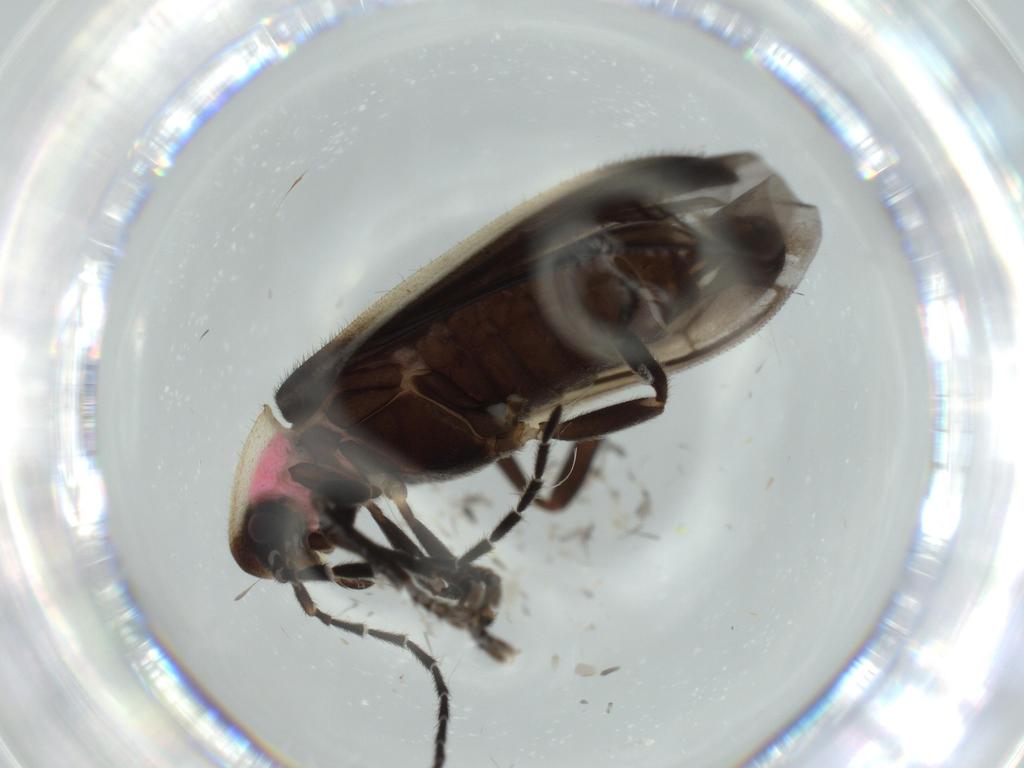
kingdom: Animalia
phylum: Arthropoda
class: Insecta
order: Coleoptera
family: Lampyridae
